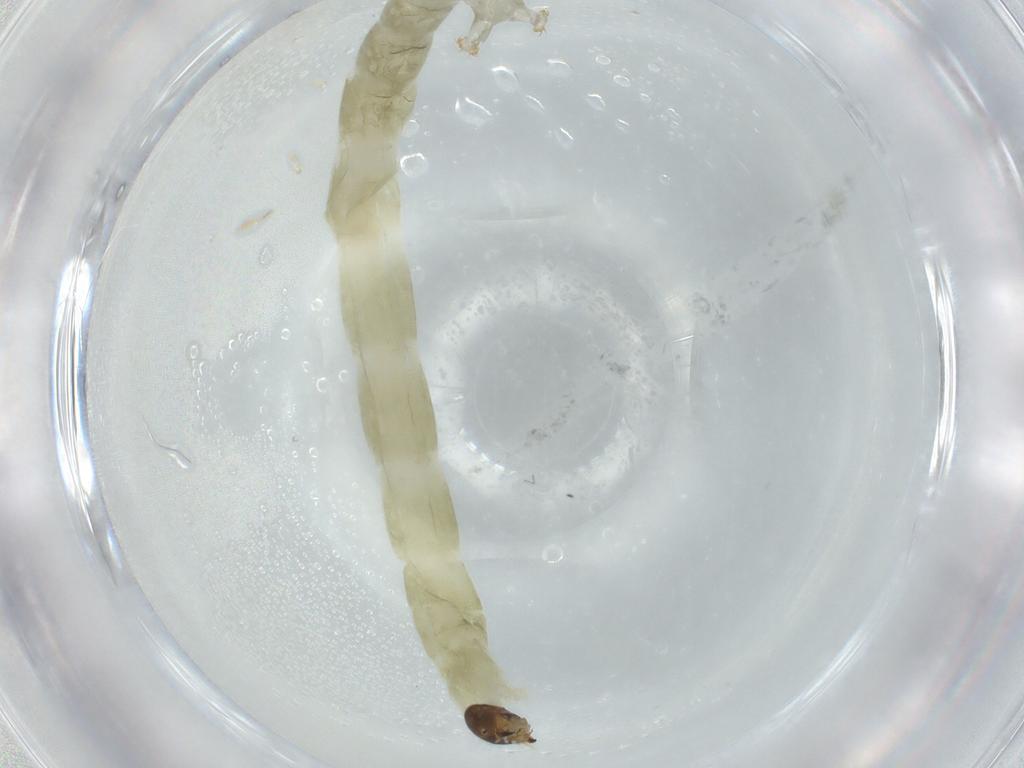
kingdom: Animalia
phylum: Arthropoda
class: Insecta
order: Diptera
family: Chironomidae
